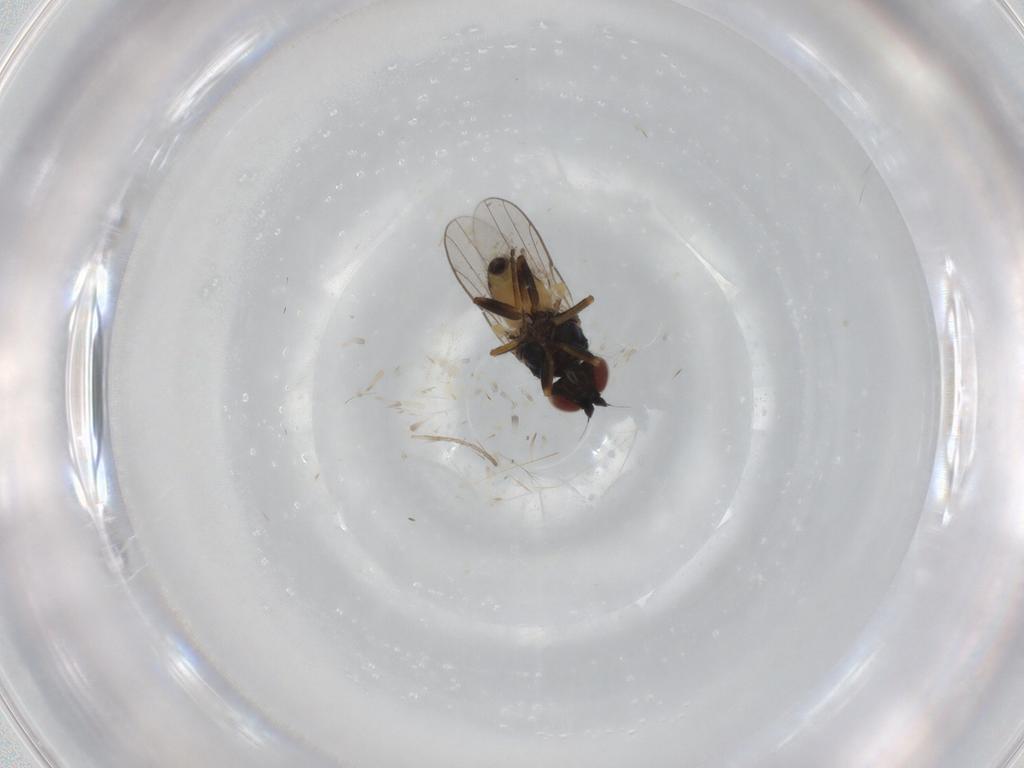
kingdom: Animalia
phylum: Arthropoda
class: Insecta
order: Diptera
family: Chloropidae
